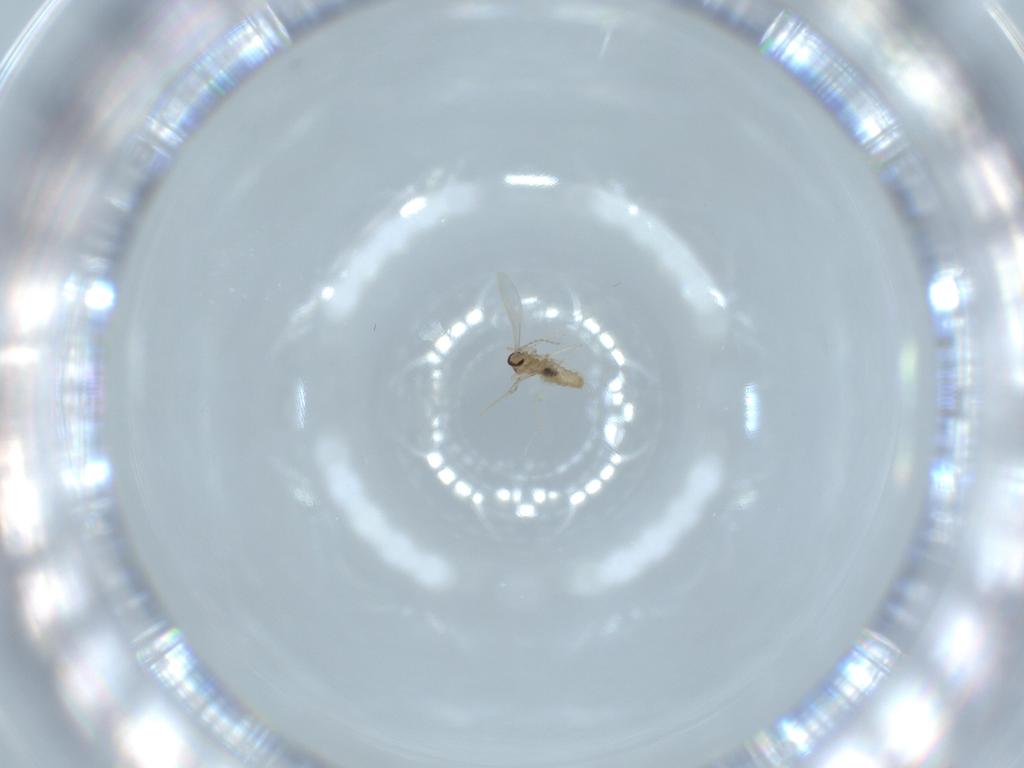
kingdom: Animalia
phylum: Arthropoda
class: Insecta
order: Diptera
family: Cecidomyiidae
